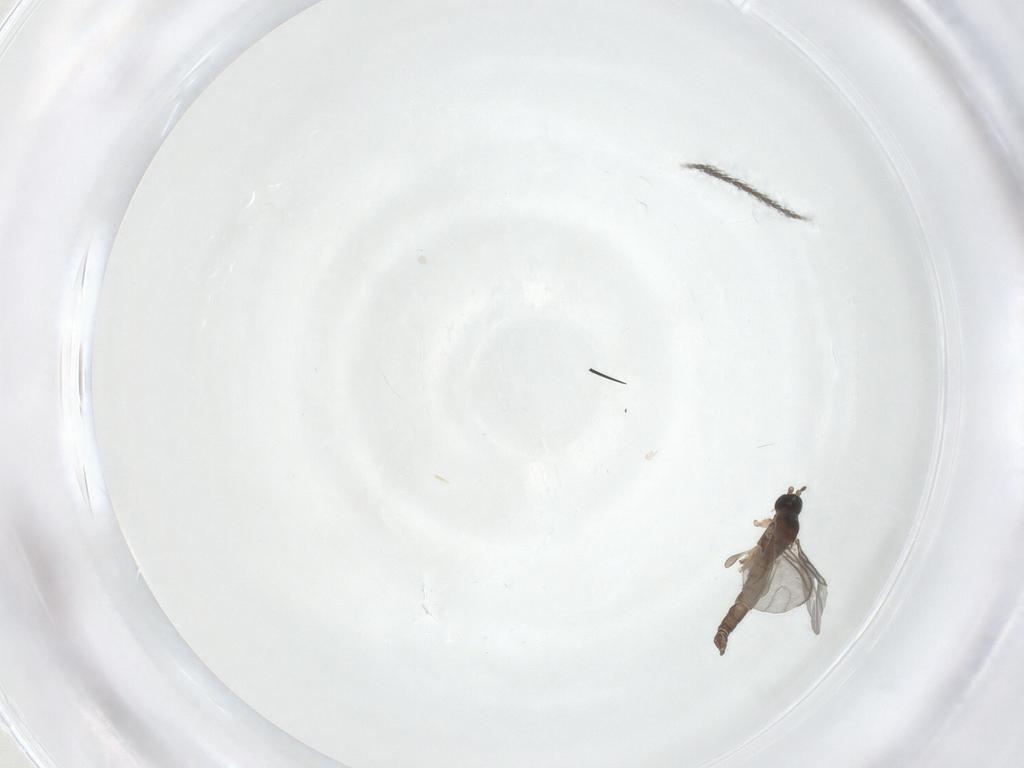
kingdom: Animalia
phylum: Arthropoda
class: Insecta
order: Diptera
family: Sciaridae
